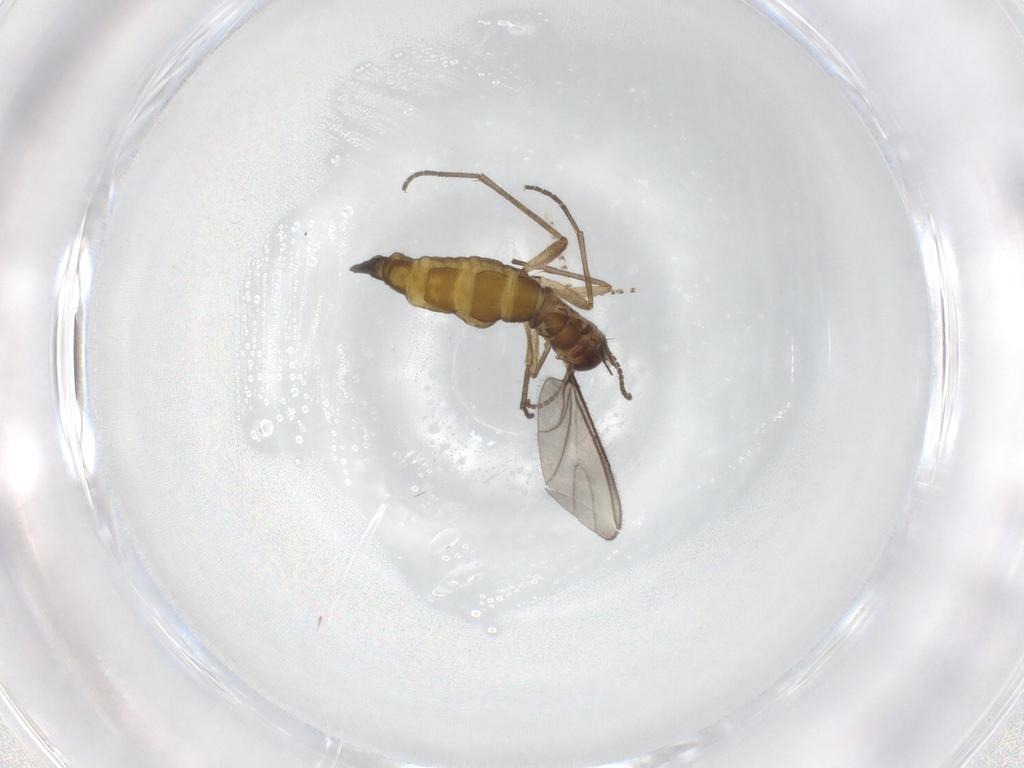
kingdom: Animalia
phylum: Arthropoda
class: Insecta
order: Diptera
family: Sciaridae
